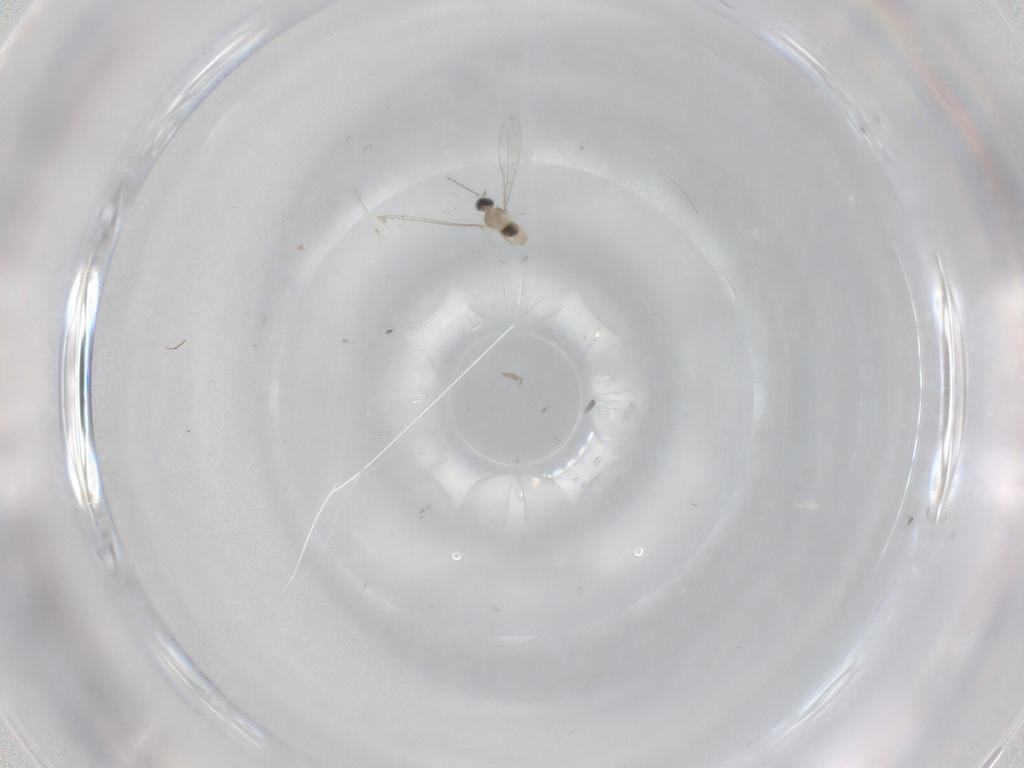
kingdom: Animalia
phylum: Arthropoda
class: Insecta
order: Diptera
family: Cecidomyiidae
